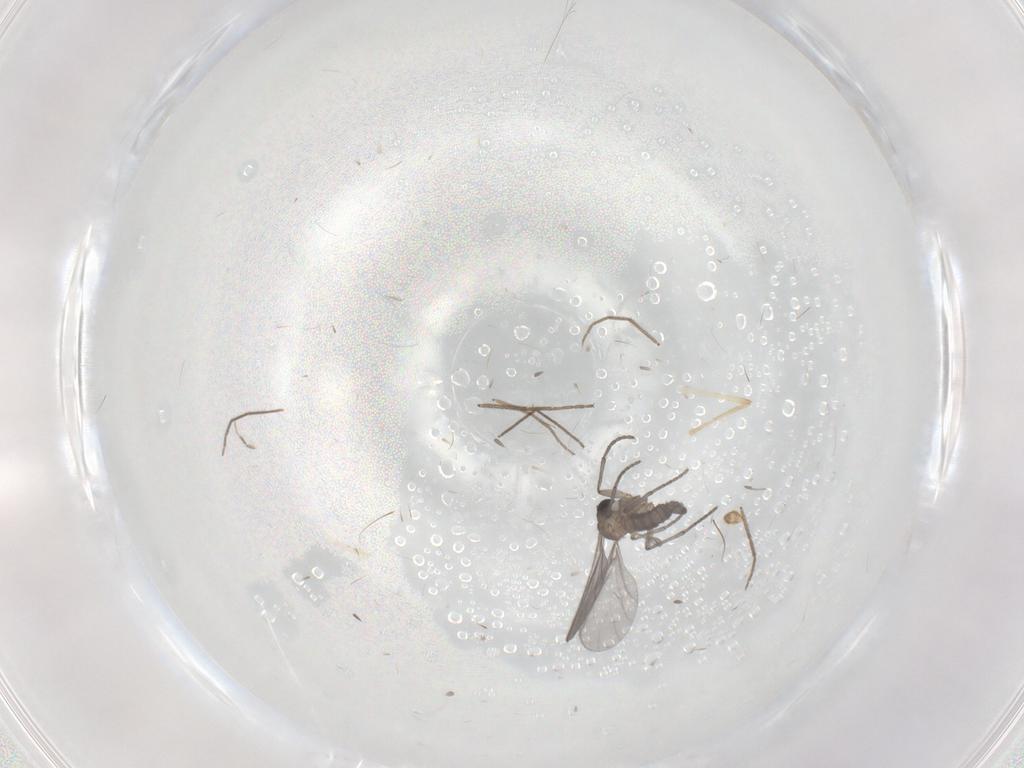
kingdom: Animalia
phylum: Arthropoda
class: Insecta
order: Diptera
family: Sciaridae
